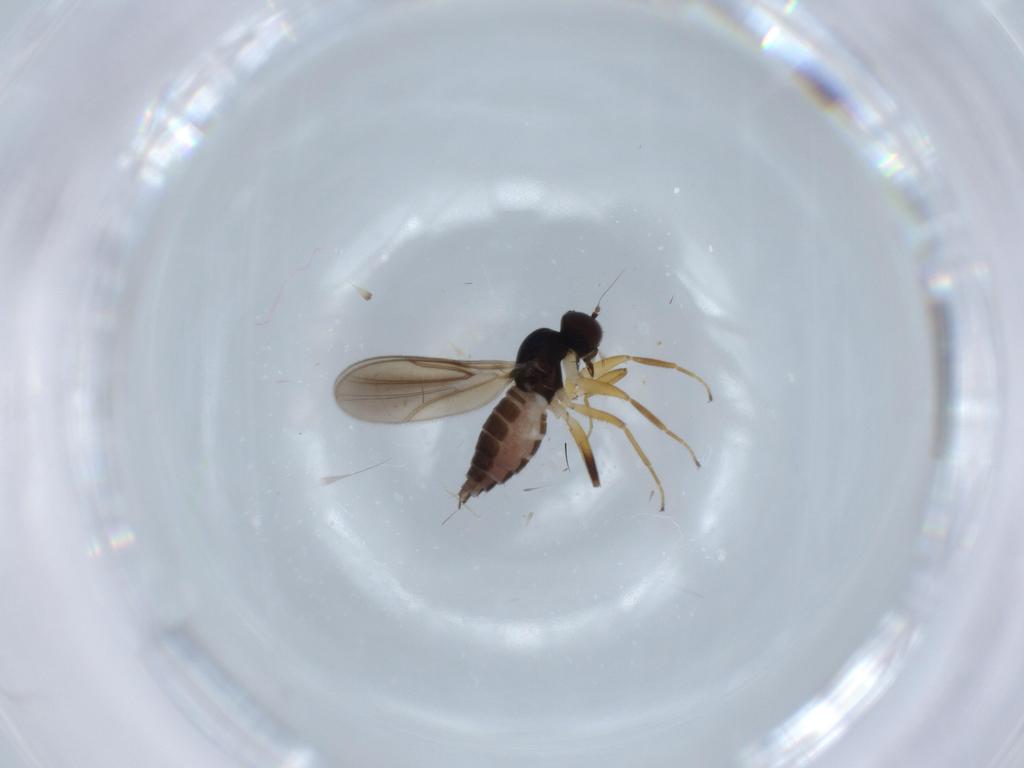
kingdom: Animalia
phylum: Arthropoda
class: Insecta
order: Diptera
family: Hybotidae
